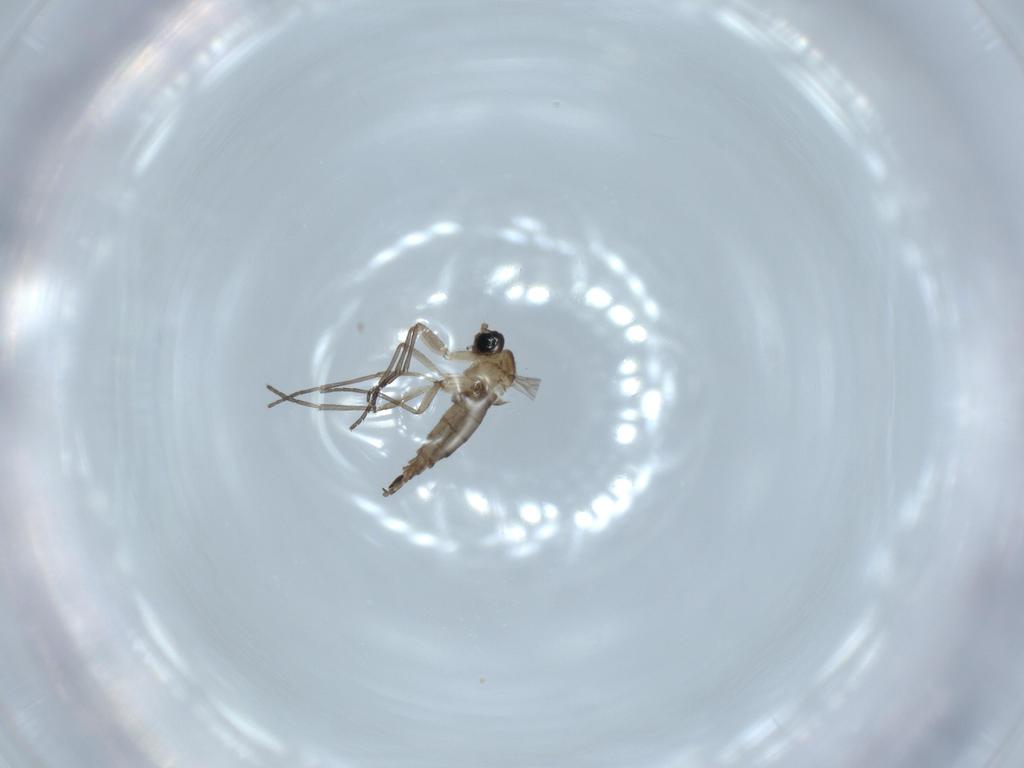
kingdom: Animalia
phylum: Arthropoda
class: Insecta
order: Diptera
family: Sciaridae
